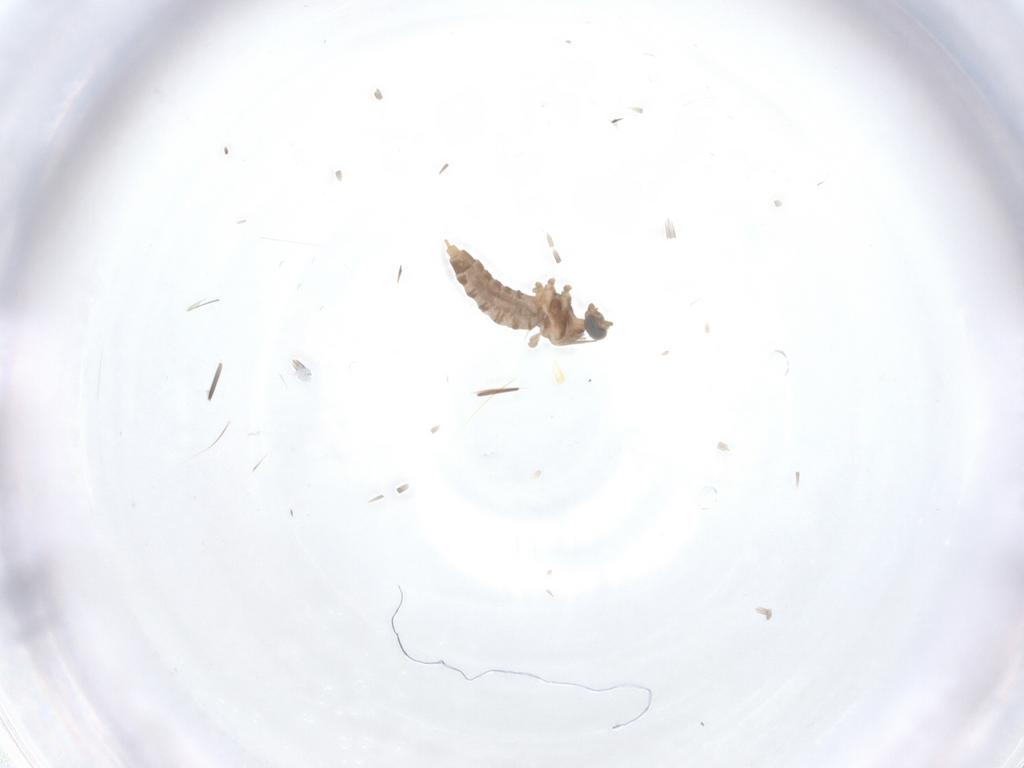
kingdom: Animalia
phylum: Arthropoda
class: Insecta
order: Diptera
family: Cecidomyiidae
